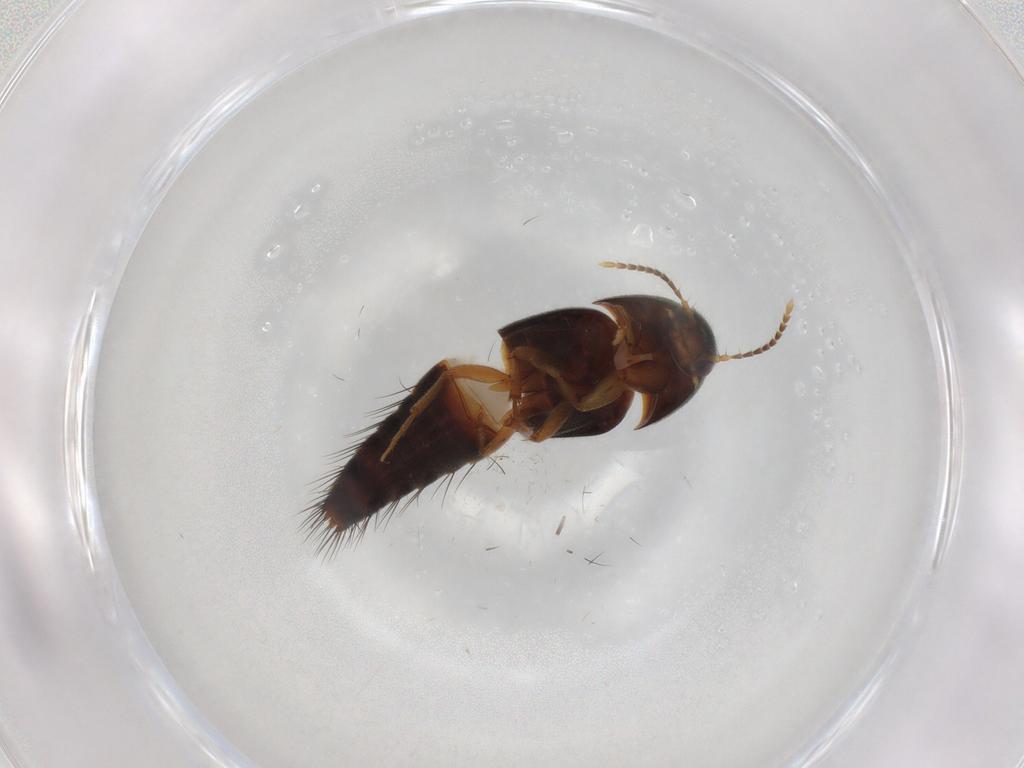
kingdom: Animalia
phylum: Arthropoda
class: Insecta
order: Coleoptera
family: Staphylinidae
